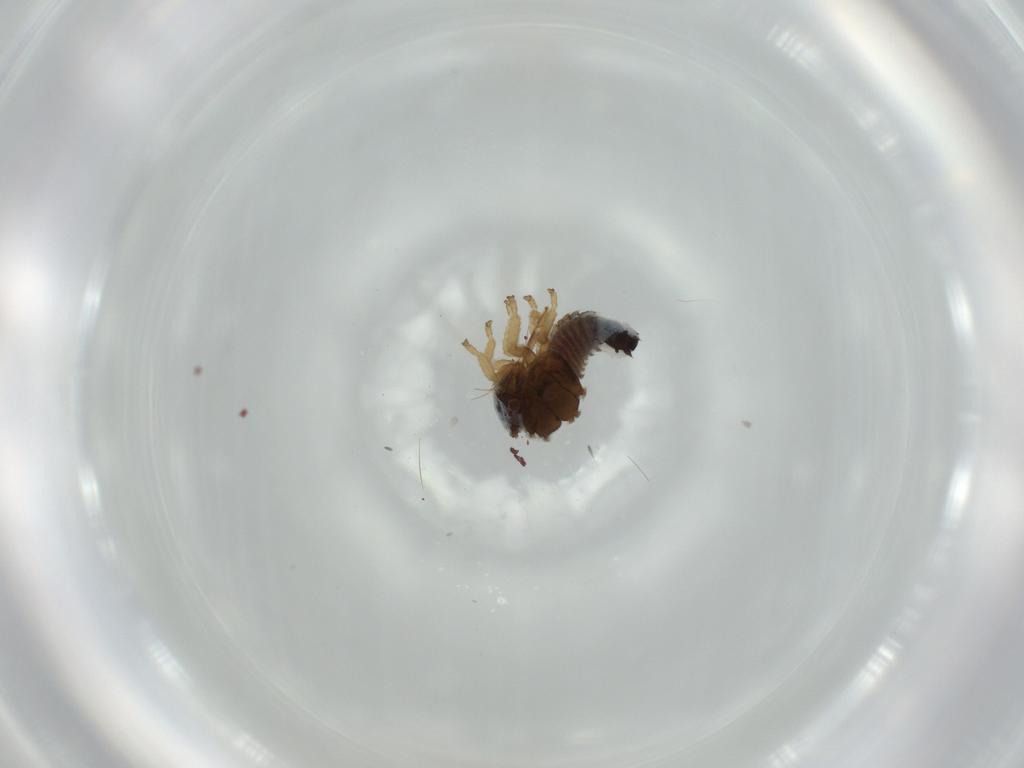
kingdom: Animalia
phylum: Arthropoda
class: Insecta
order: Hemiptera
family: Membracidae
